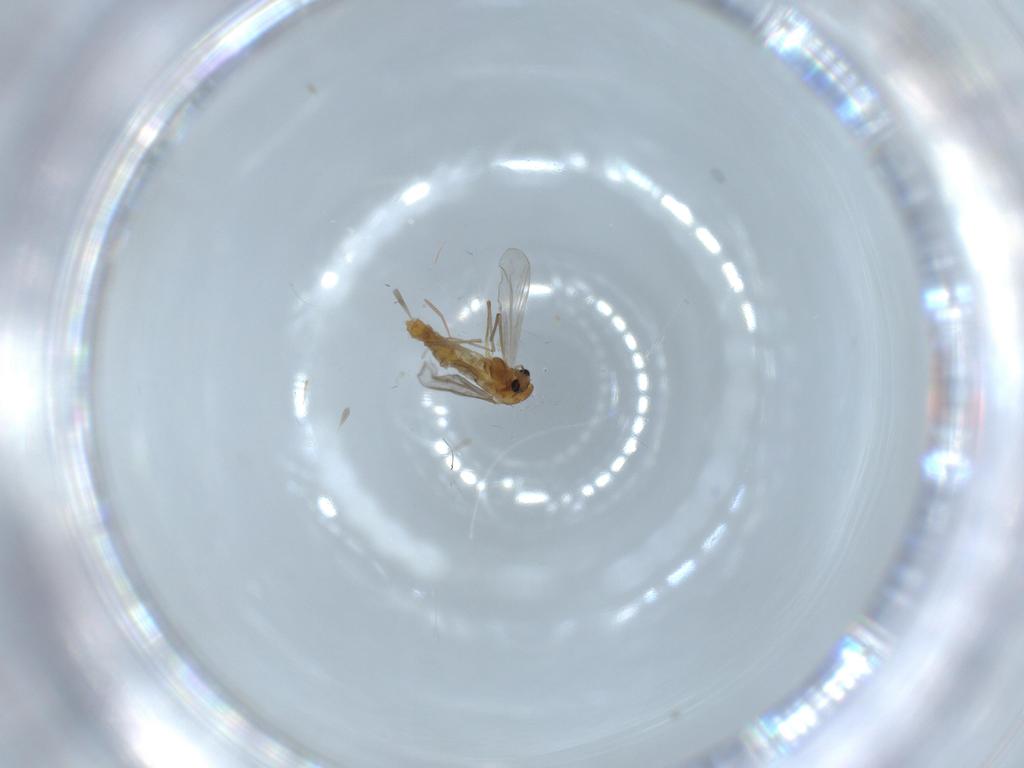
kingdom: Animalia
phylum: Arthropoda
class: Insecta
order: Diptera
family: Chironomidae
